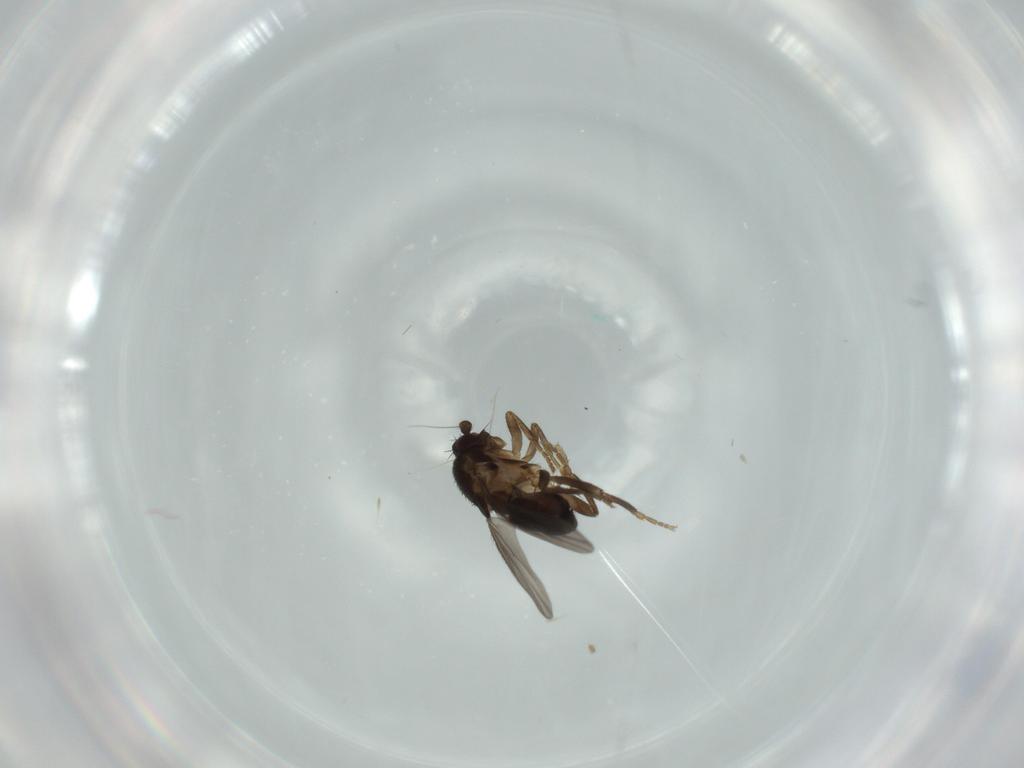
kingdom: Animalia
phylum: Arthropoda
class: Insecta
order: Diptera
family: Sphaeroceridae
